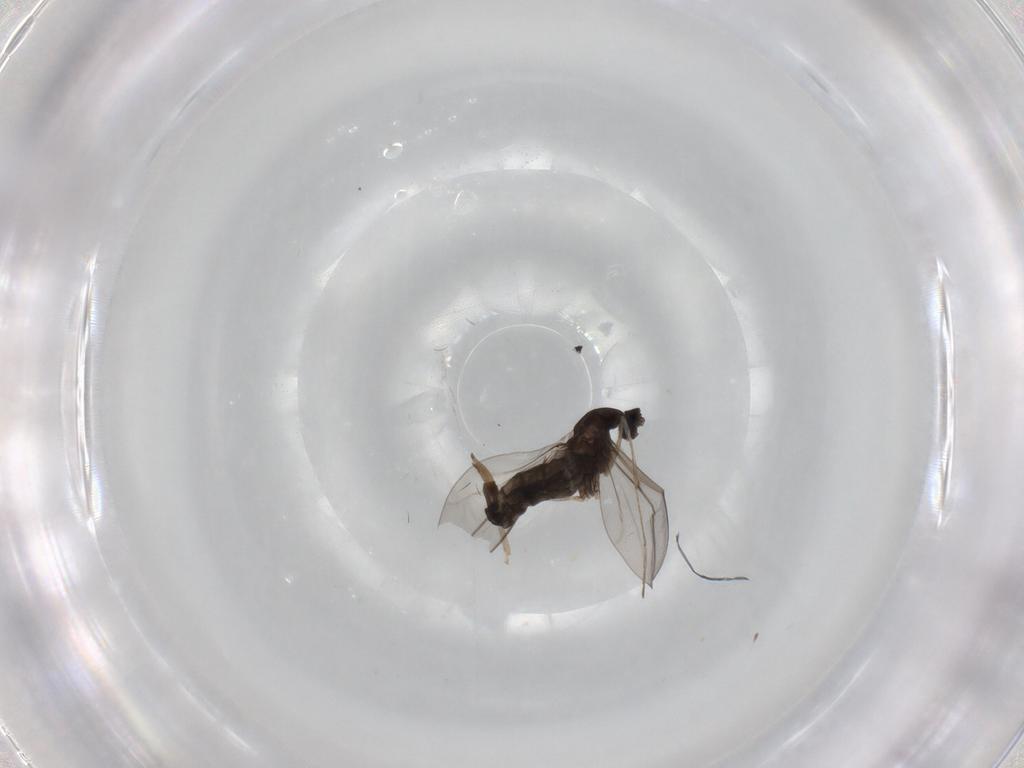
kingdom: Animalia
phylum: Arthropoda
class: Insecta
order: Diptera
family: Cecidomyiidae
